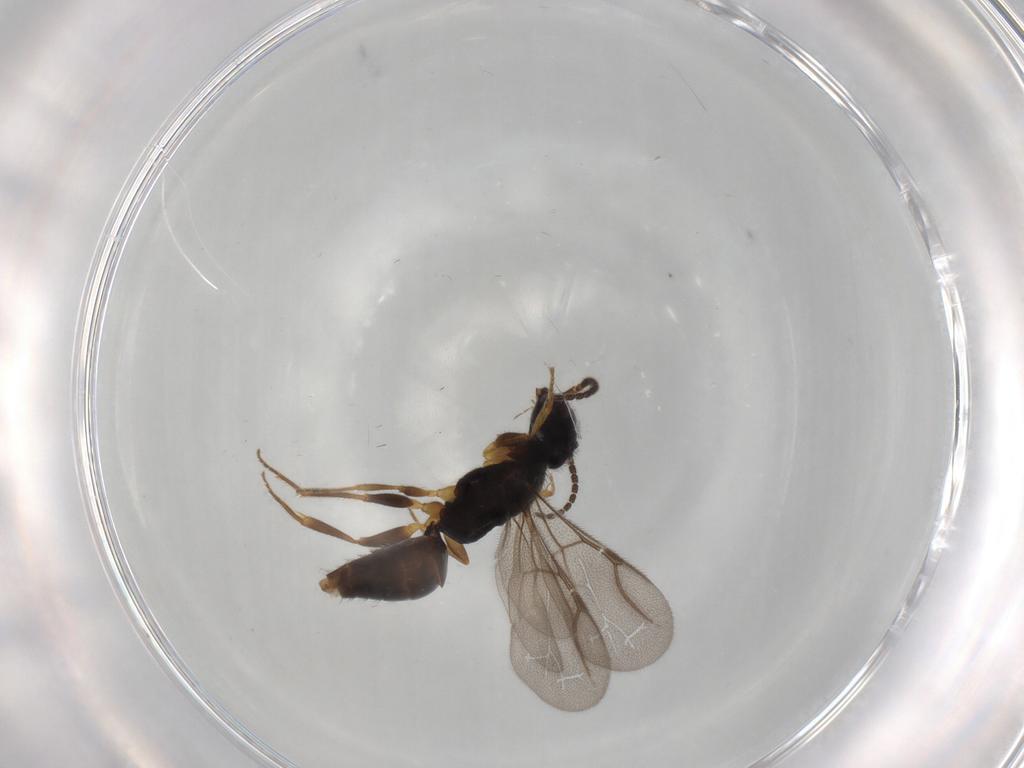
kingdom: Animalia
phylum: Arthropoda
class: Insecta
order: Hymenoptera
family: Bethylidae
